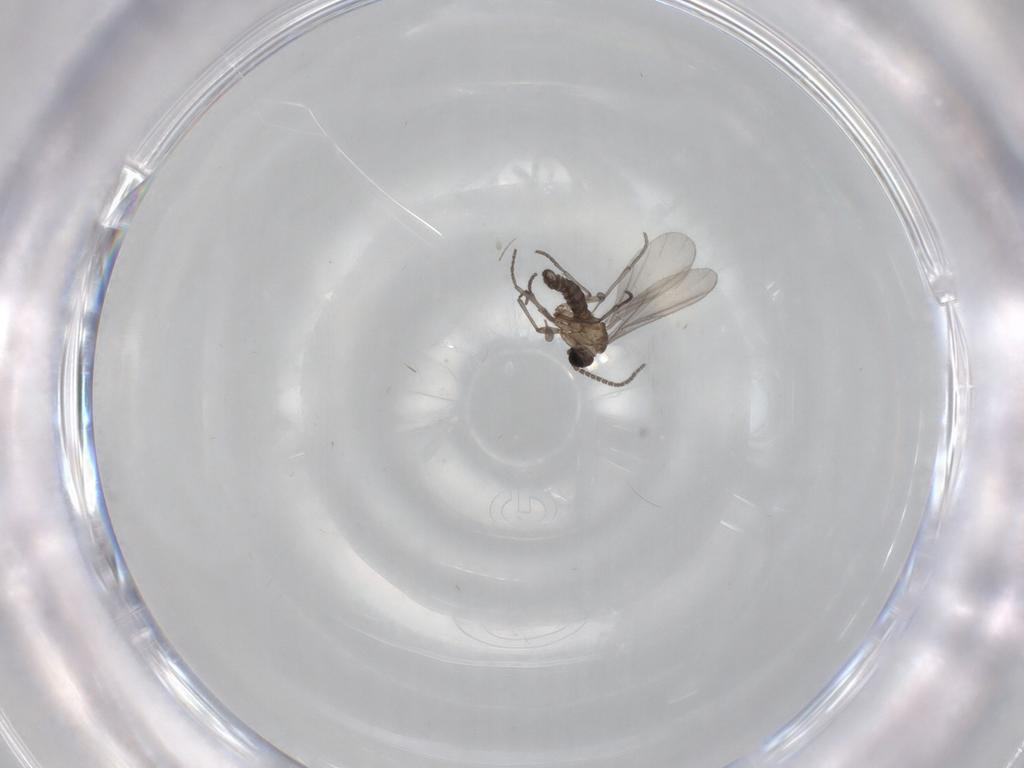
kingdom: Animalia
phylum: Arthropoda
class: Insecta
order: Diptera
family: Sciaridae
